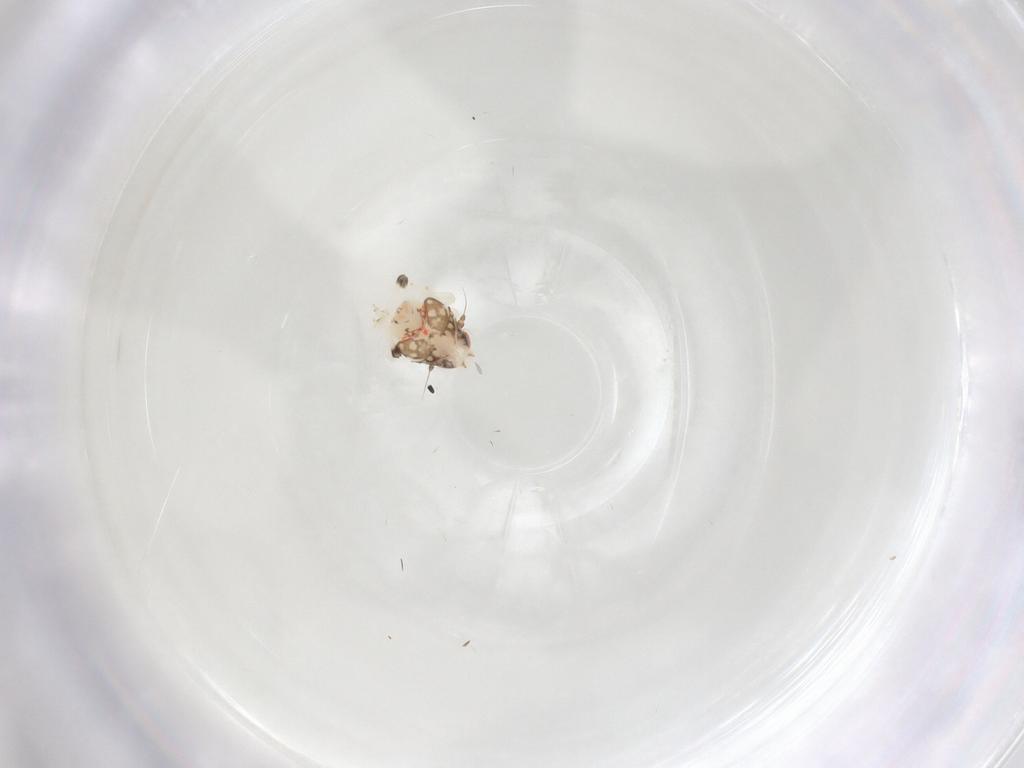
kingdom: Animalia
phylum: Arthropoda
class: Insecta
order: Hemiptera
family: Nogodinidae
